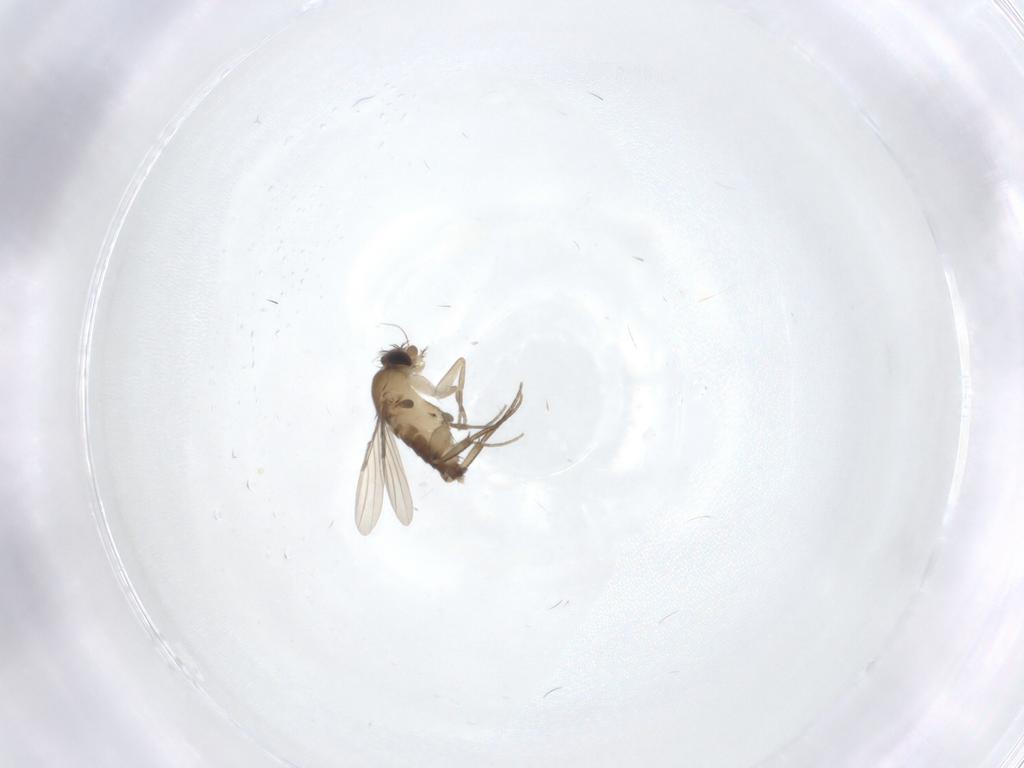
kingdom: Animalia
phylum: Arthropoda
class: Insecta
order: Diptera
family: Phoridae
